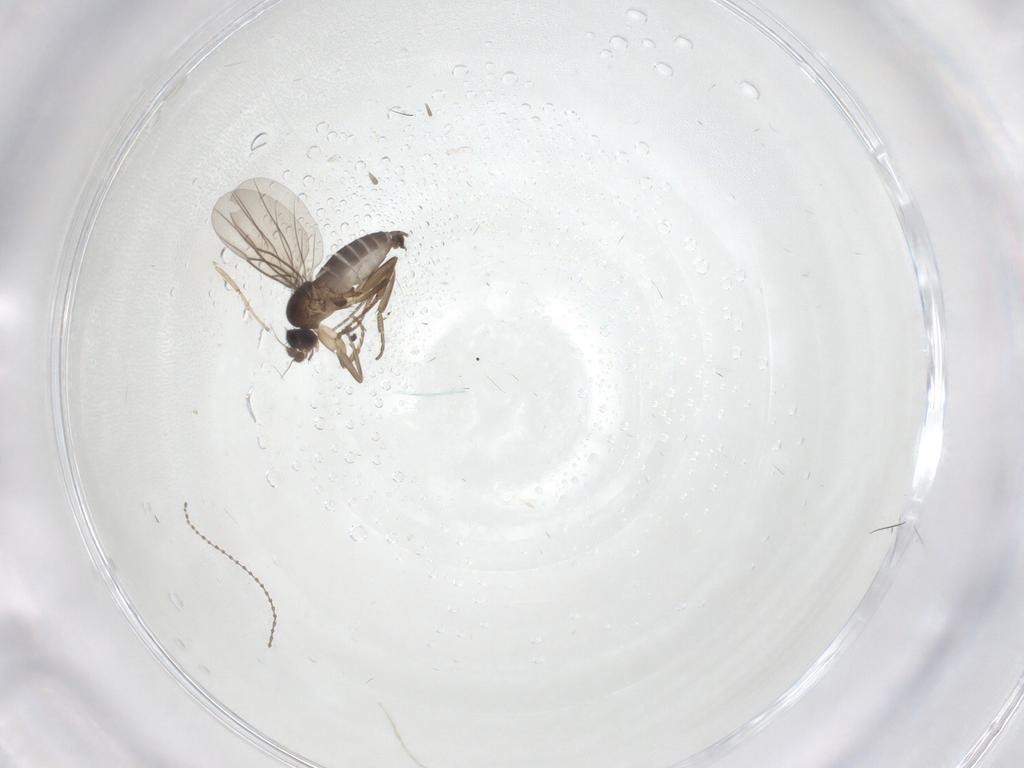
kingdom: Animalia
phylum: Arthropoda
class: Insecta
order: Diptera
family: Phoridae
